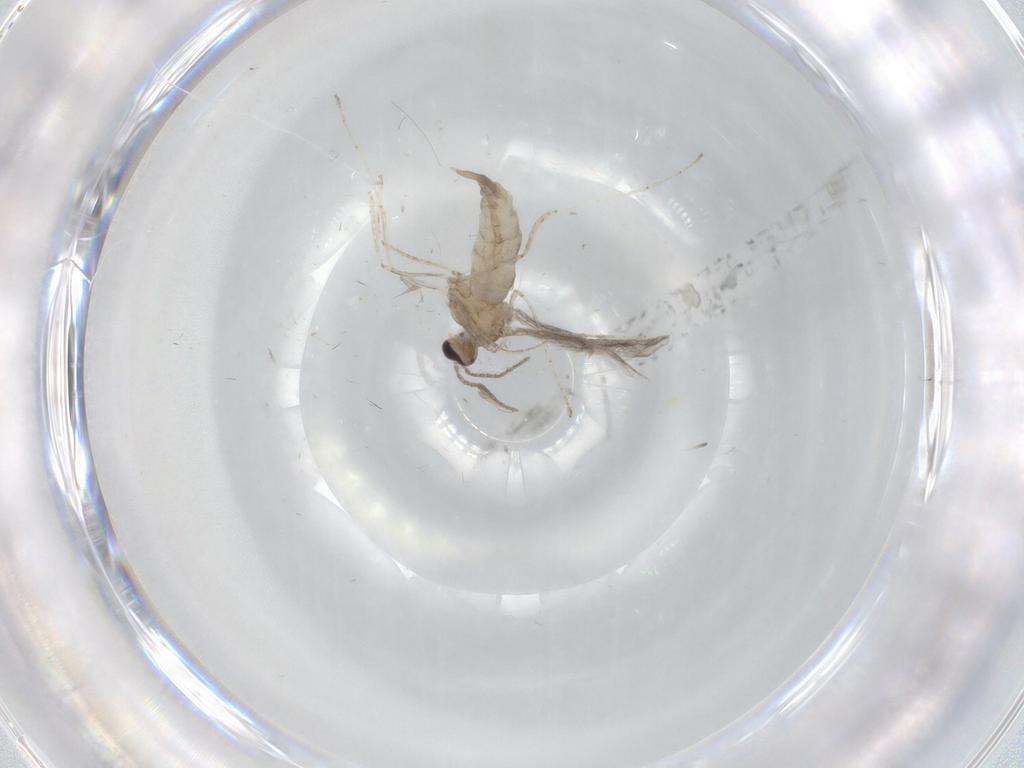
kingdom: Animalia
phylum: Arthropoda
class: Insecta
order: Diptera
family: Cecidomyiidae
